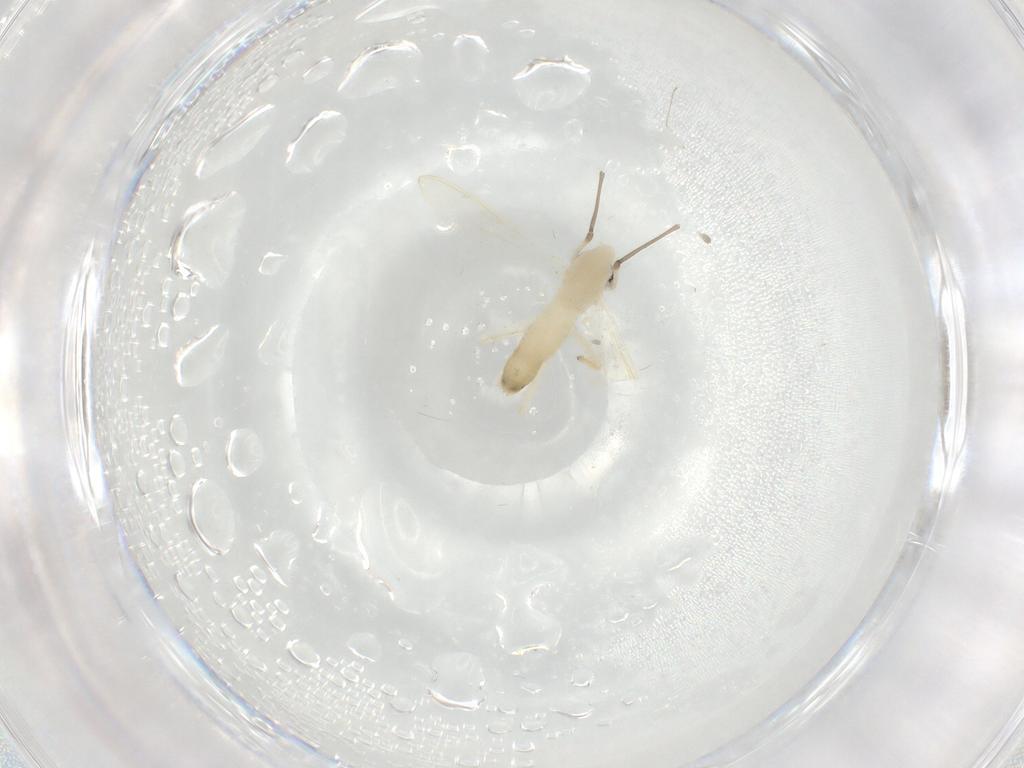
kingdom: Animalia
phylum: Arthropoda
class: Insecta
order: Diptera
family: Chironomidae
